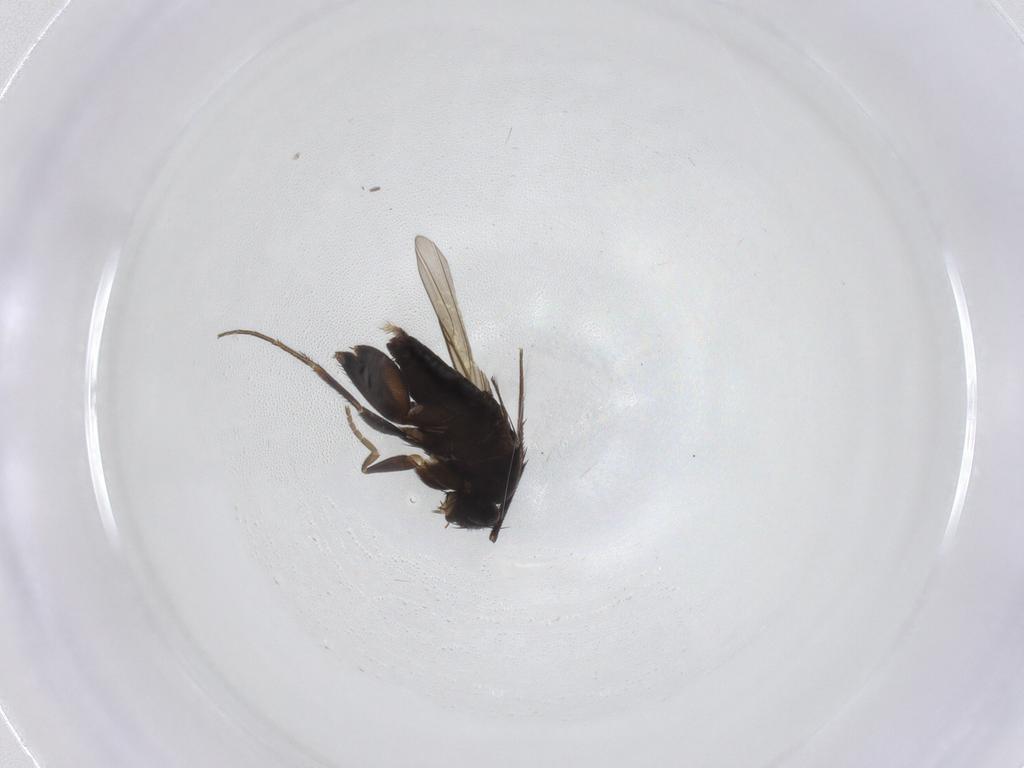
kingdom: Animalia
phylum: Arthropoda
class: Insecta
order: Diptera
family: Phoridae
